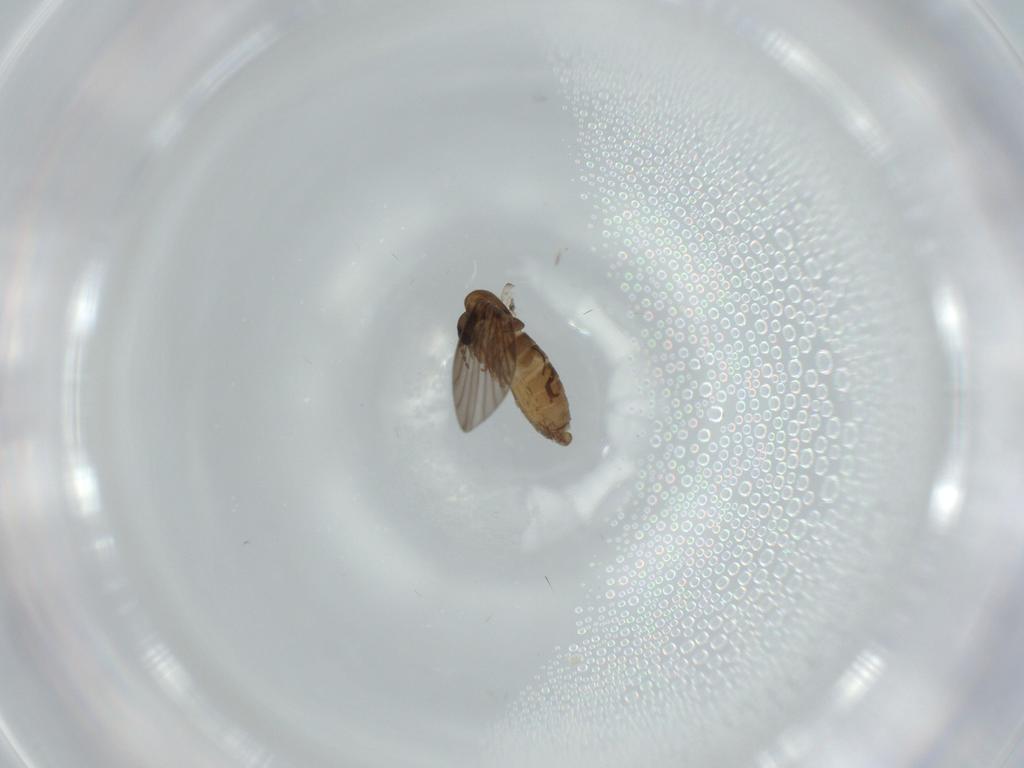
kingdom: Animalia
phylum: Arthropoda
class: Insecta
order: Diptera
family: Psychodidae
